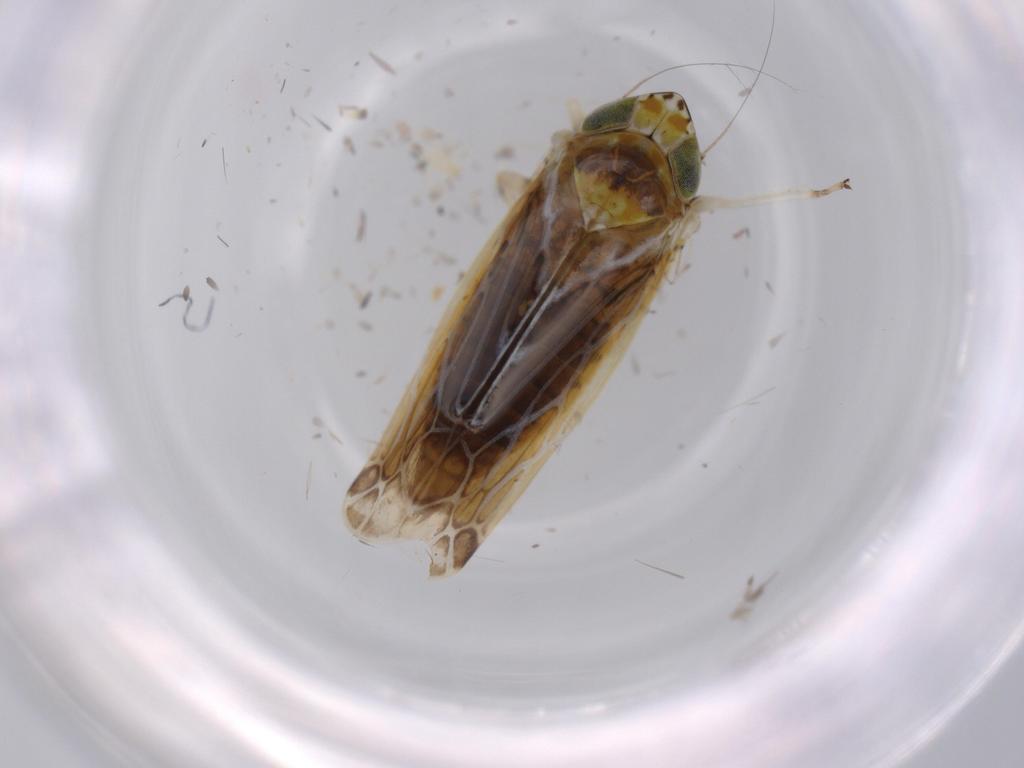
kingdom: Animalia
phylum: Arthropoda
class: Insecta
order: Hemiptera
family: Cicadellidae
